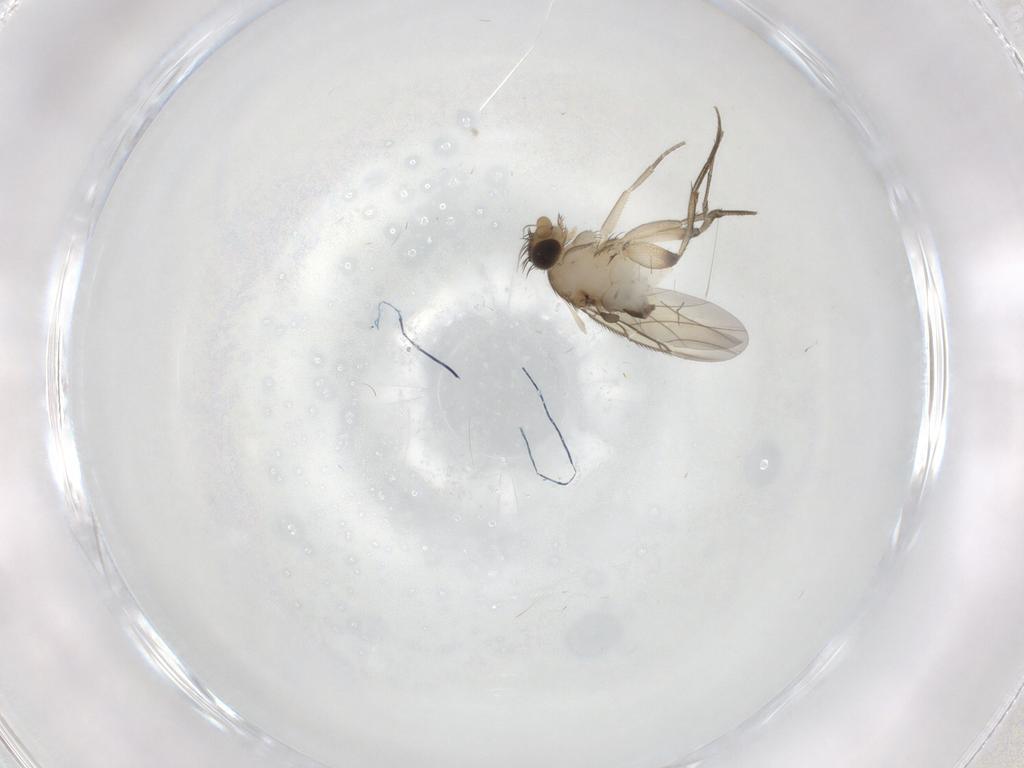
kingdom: Animalia
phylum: Arthropoda
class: Insecta
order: Diptera
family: Phoridae
